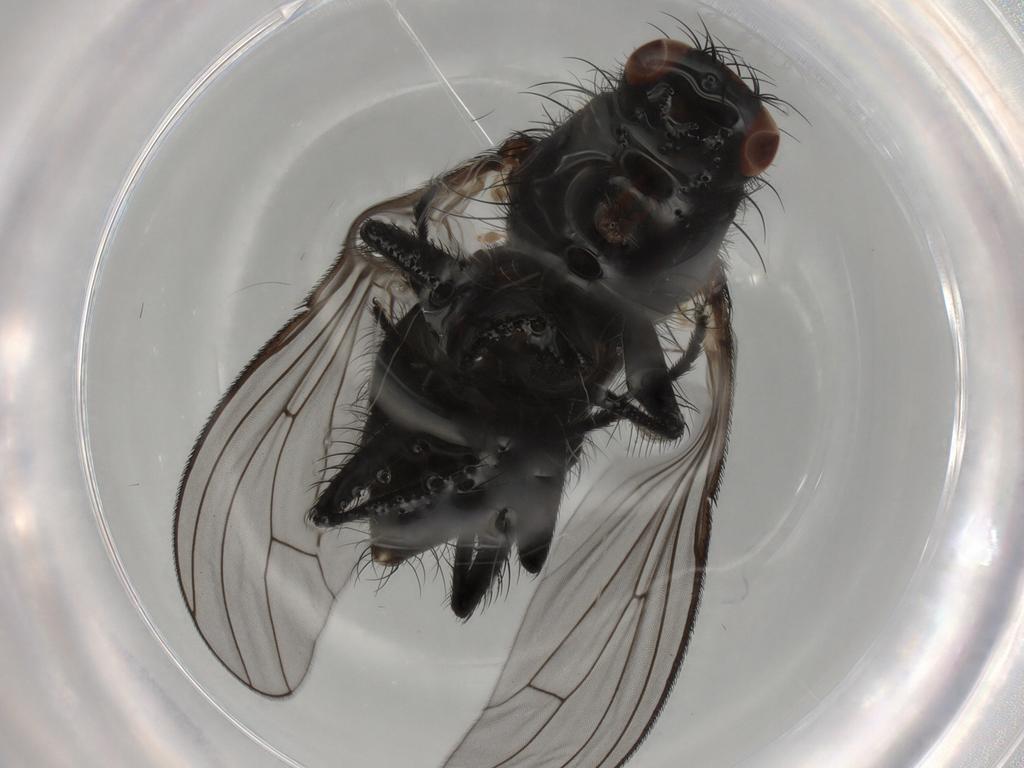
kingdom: Animalia
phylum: Arthropoda
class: Insecta
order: Diptera
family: Anthomyiidae
